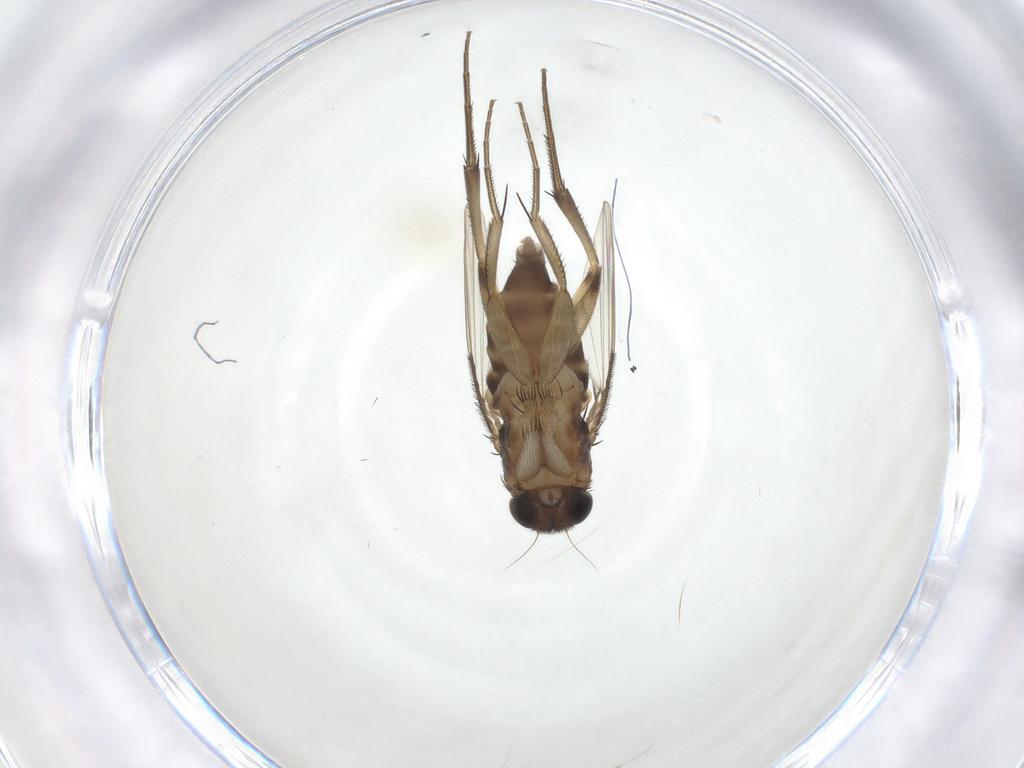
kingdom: Animalia
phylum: Arthropoda
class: Insecta
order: Diptera
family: Phoridae
